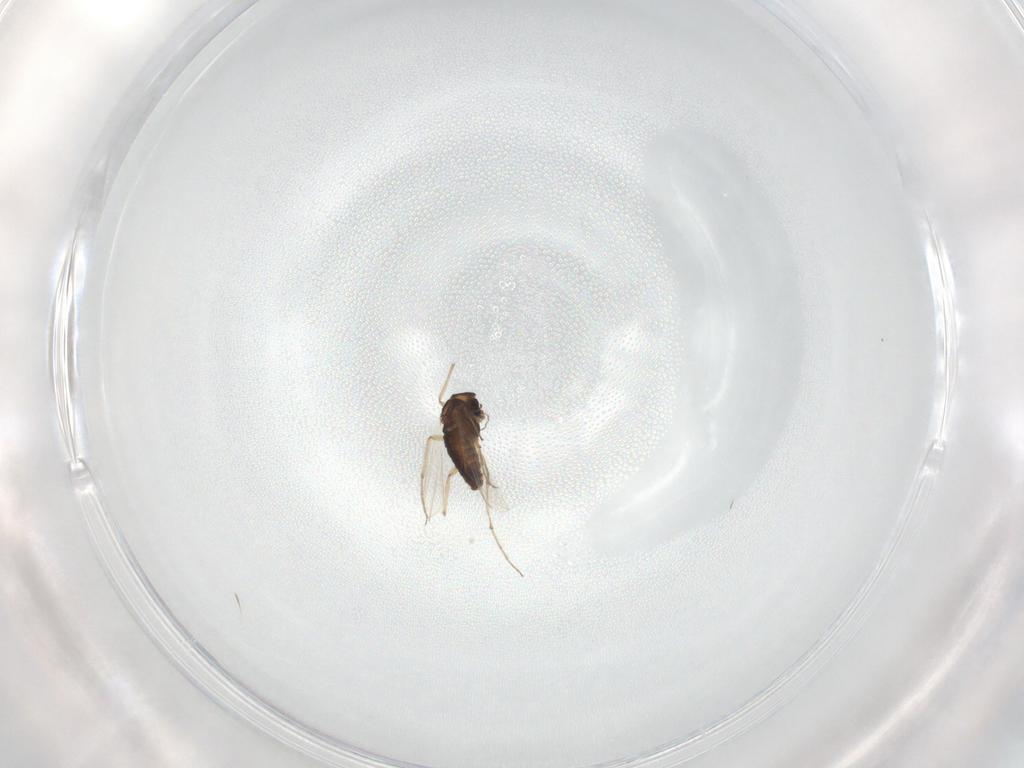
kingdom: Animalia
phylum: Arthropoda
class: Insecta
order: Diptera
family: Chironomidae
